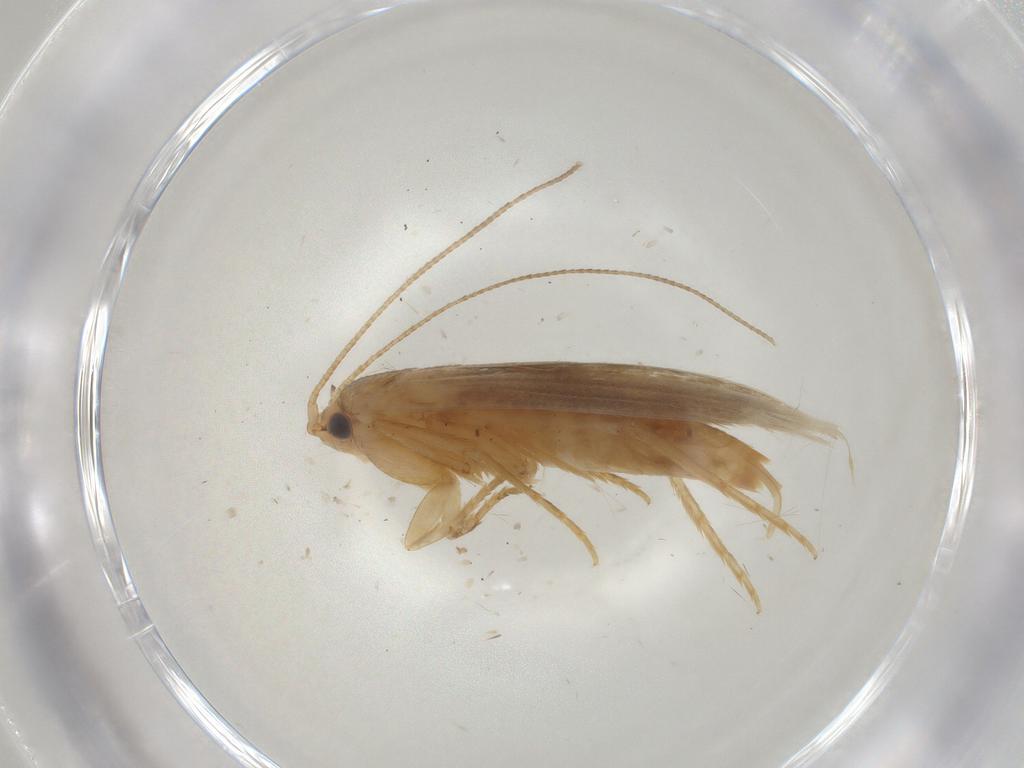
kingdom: Animalia
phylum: Arthropoda
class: Insecta
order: Lepidoptera
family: Tineidae
